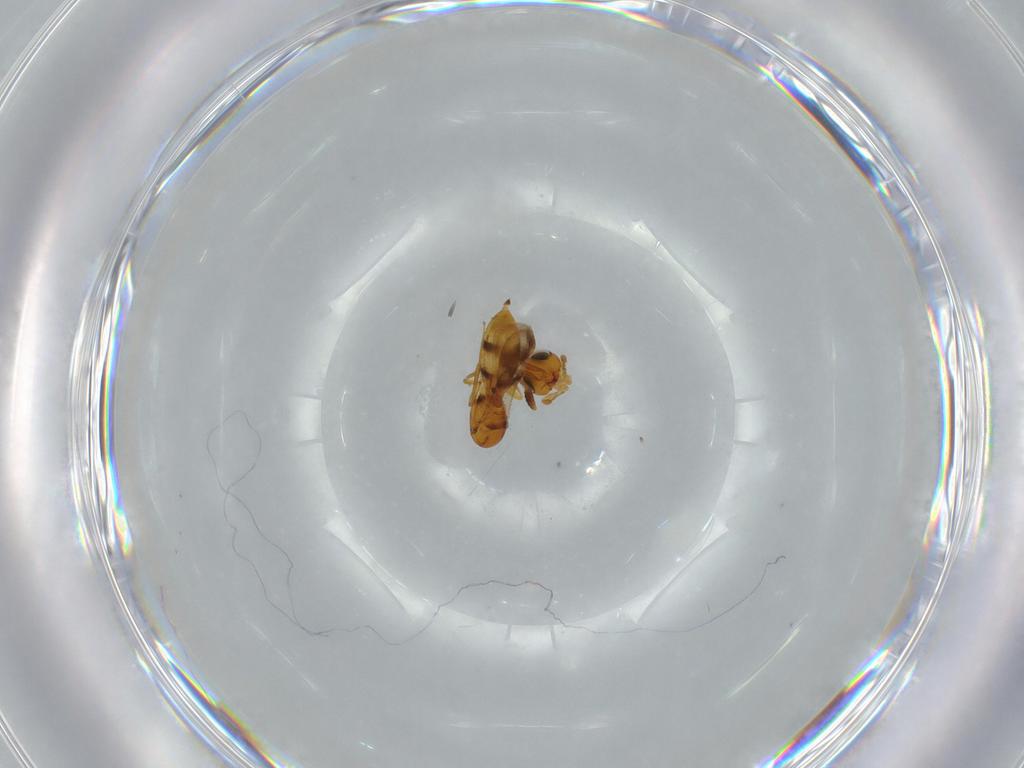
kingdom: Animalia
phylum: Arthropoda
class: Insecta
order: Hymenoptera
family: Scelionidae
